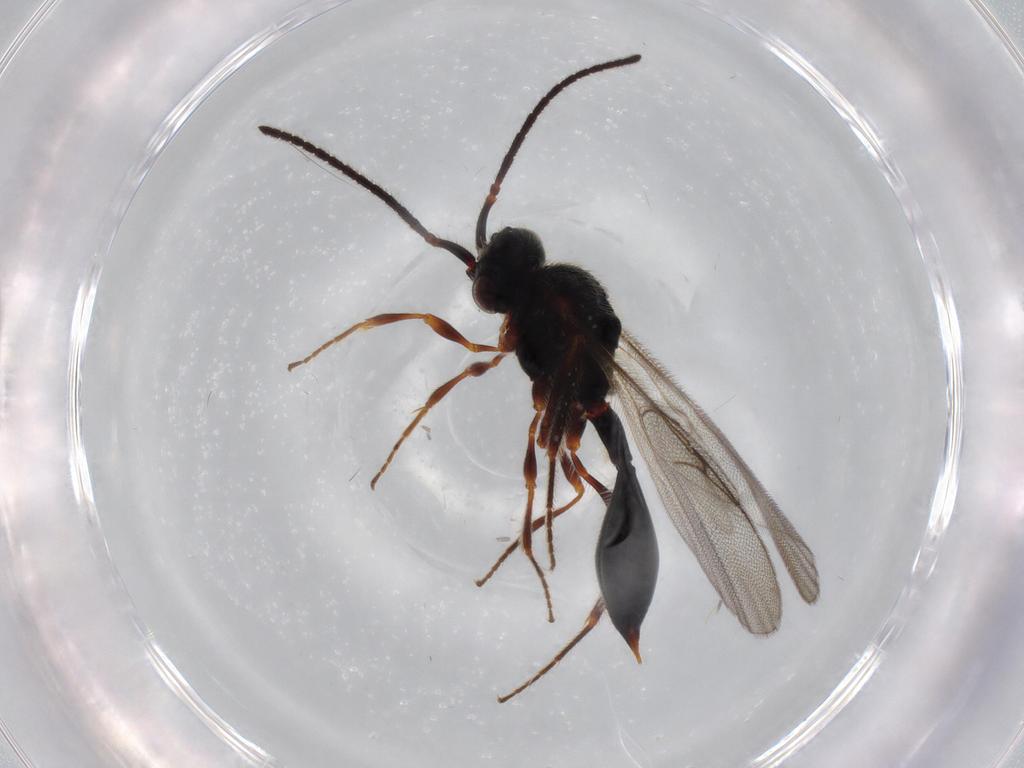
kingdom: Animalia
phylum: Arthropoda
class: Insecta
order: Hymenoptera
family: Diapriidae
